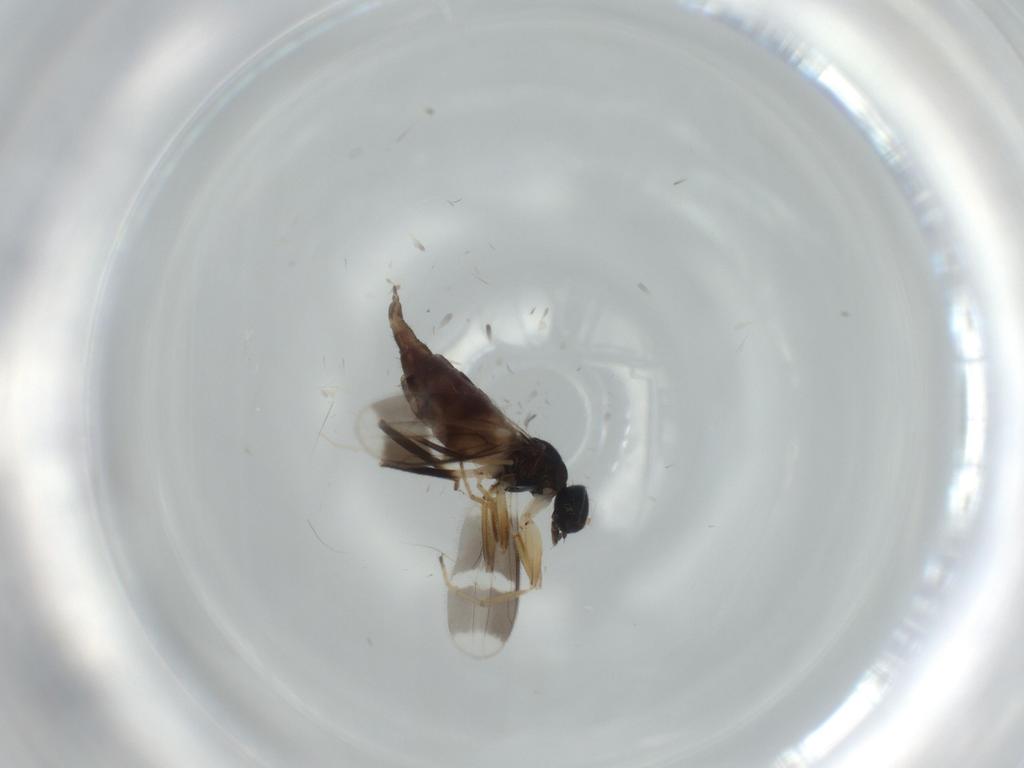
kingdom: Animalia
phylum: Arthropoda
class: Insecta
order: Diptera
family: Hybotidae
